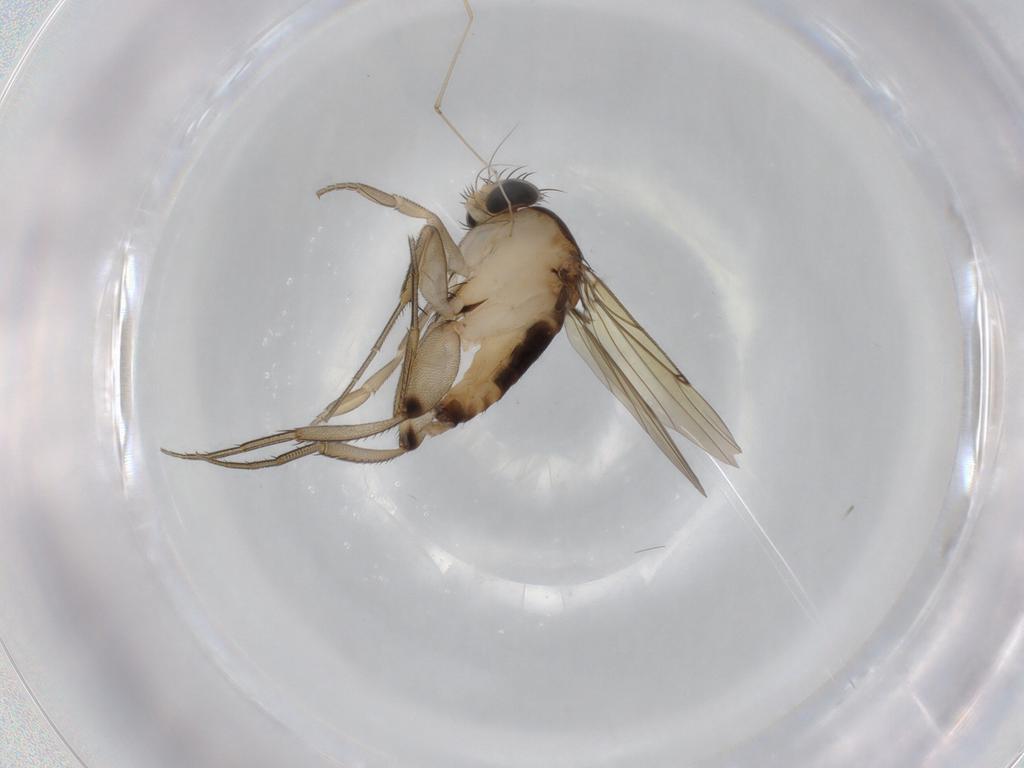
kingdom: Animalia
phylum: Arthropoda
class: Insecta
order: Diptera
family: Phoridae
